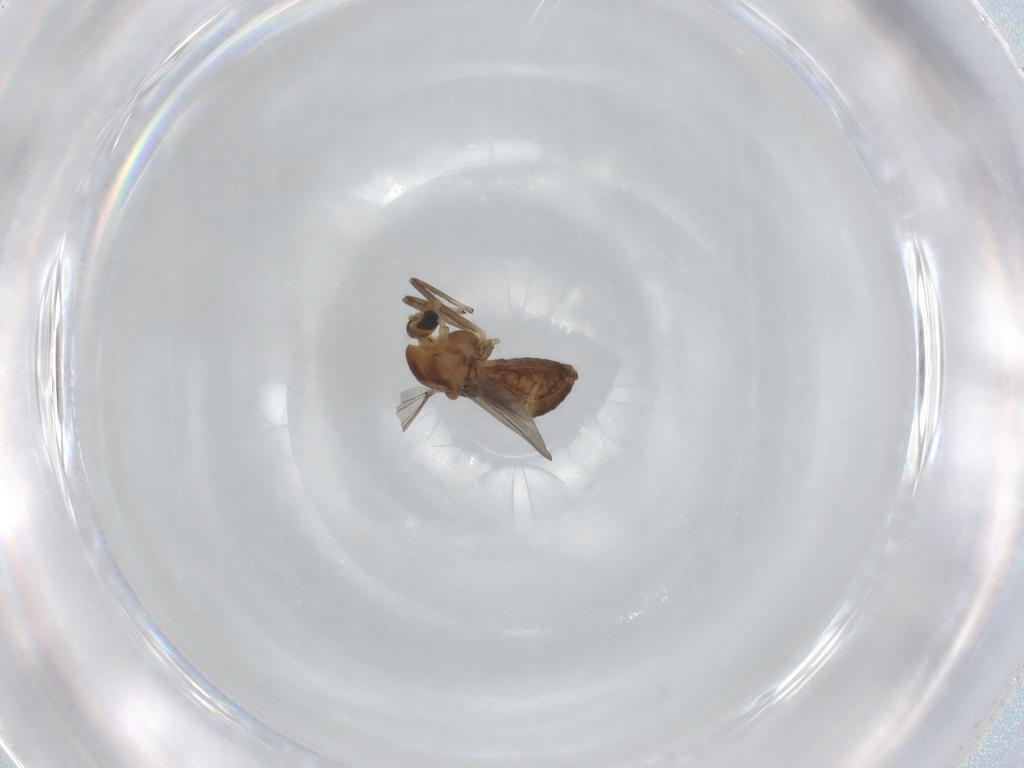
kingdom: Animalia
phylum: Arthropoda
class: Insecta
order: Diptera
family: Chironomidae
